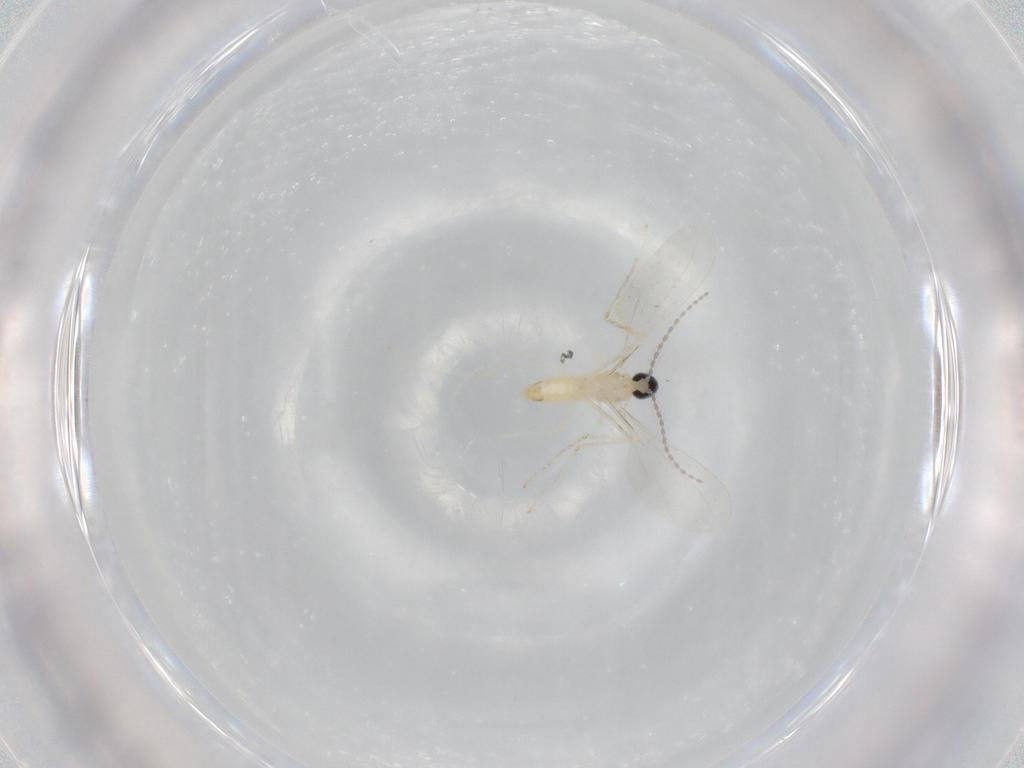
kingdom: Animalia
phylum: Arthropoda
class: Insecta
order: Diptera
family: Cecidomyiidae
